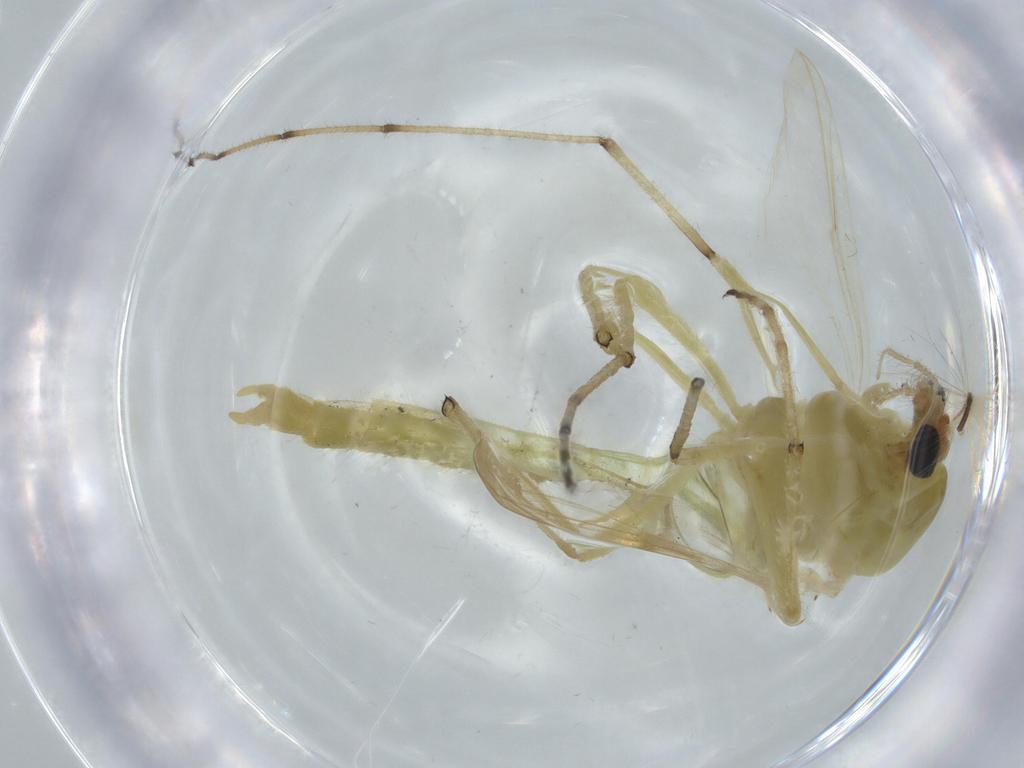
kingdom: Animalia
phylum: Arthropoda
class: Insecta
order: Diptera
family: Chironomidae
